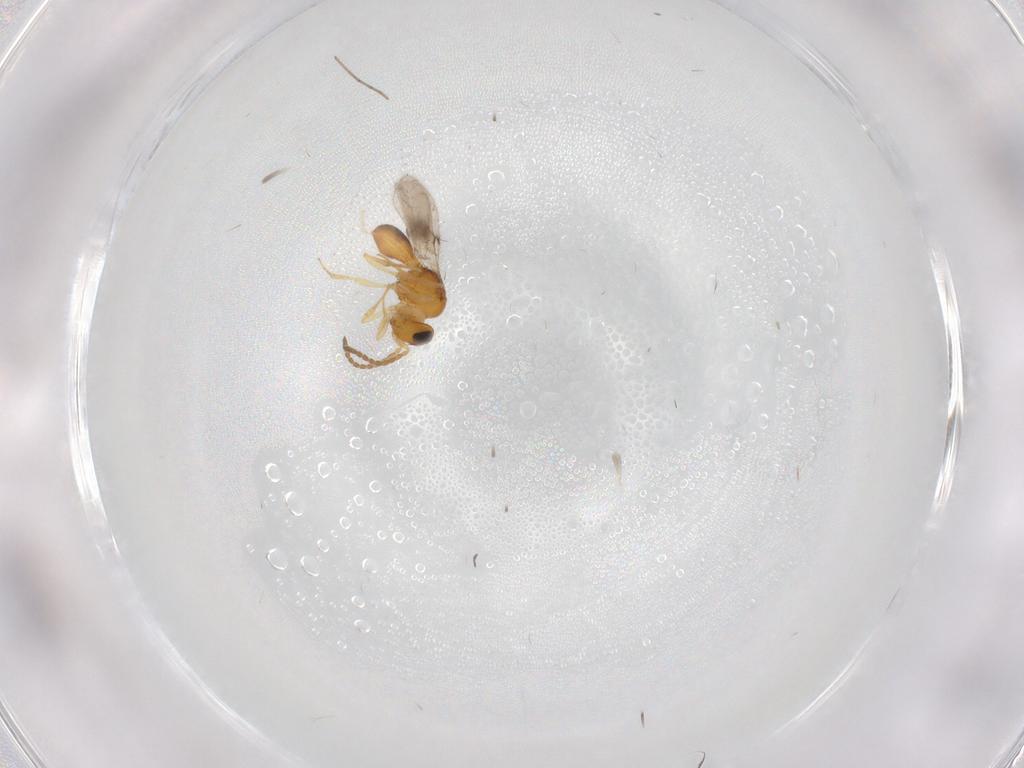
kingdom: Animalia
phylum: Arthropoda
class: Insecta
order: Hymenoptera
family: Scelionidae
